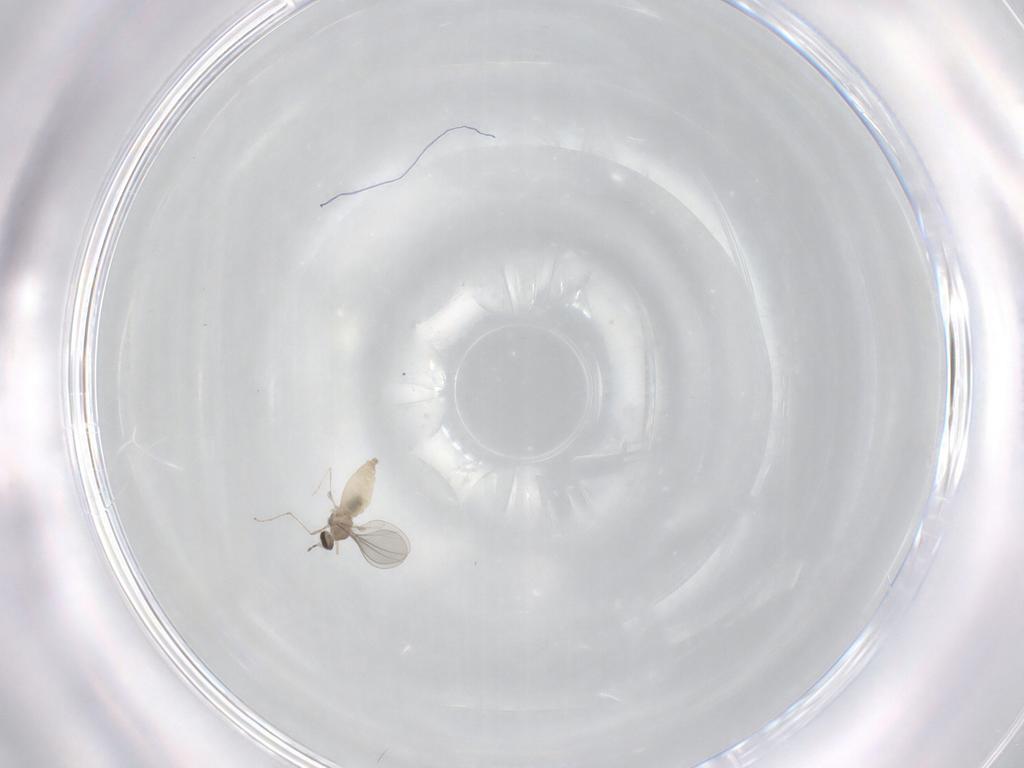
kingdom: Animalia
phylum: Arthropoda
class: Insecta
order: Diptera
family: Cecidomyiidae
